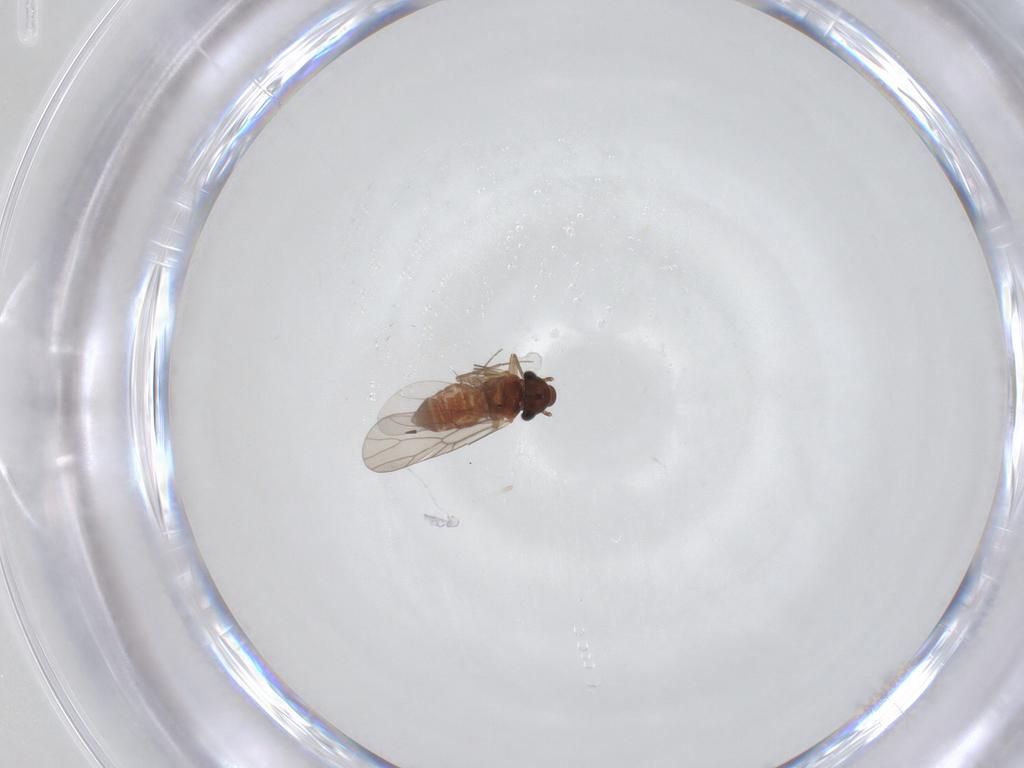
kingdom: Animalia
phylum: Arthropoda
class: Insecta
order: Psocodea
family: Lepidopsocidae
